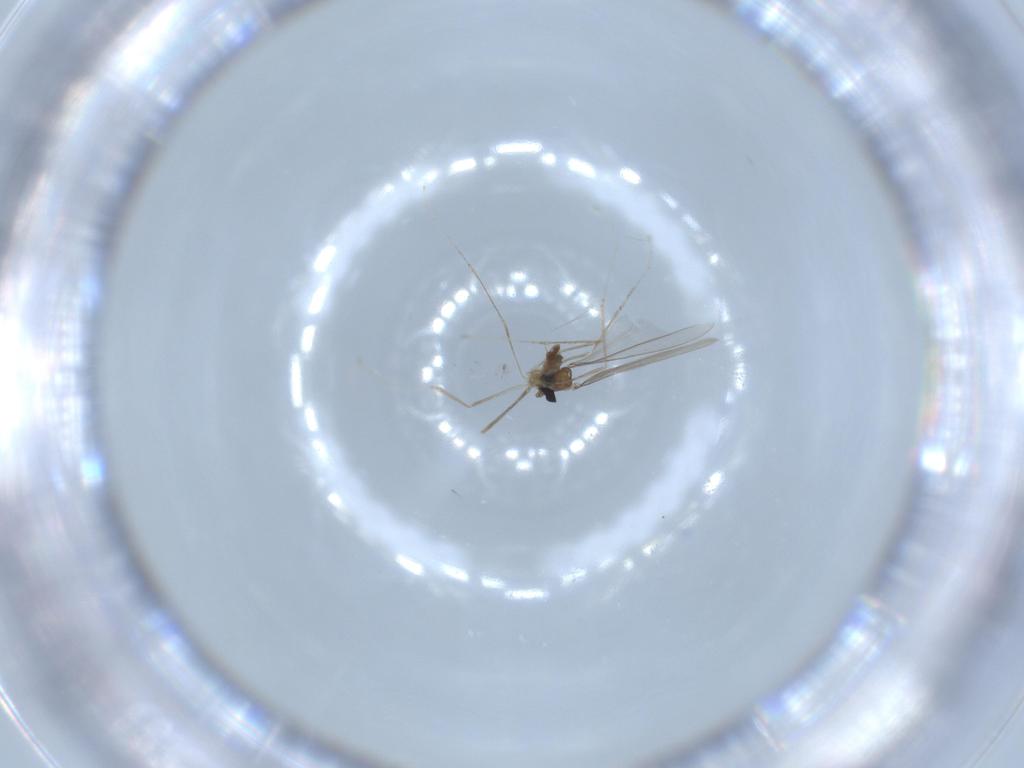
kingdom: Animalia
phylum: Arthropoda
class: Insecta
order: Diptera
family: Cecidomyiidae
